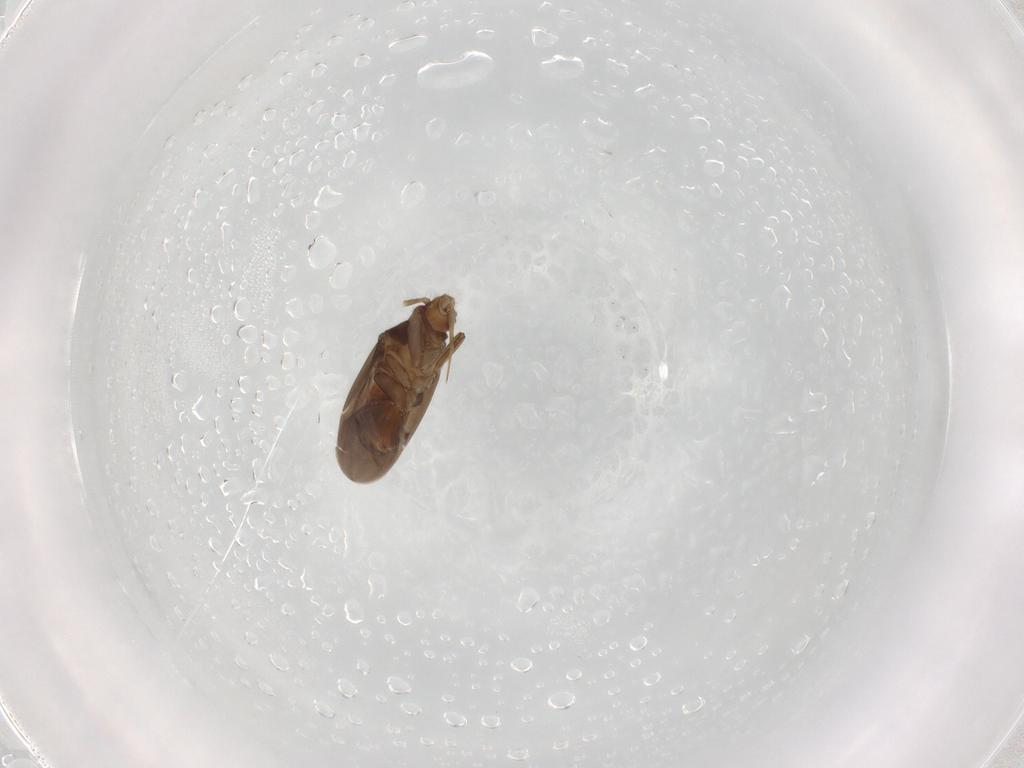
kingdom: Animalia
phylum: Arthropoda
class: Insecta
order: Hemiptera
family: Ceratocombidae
